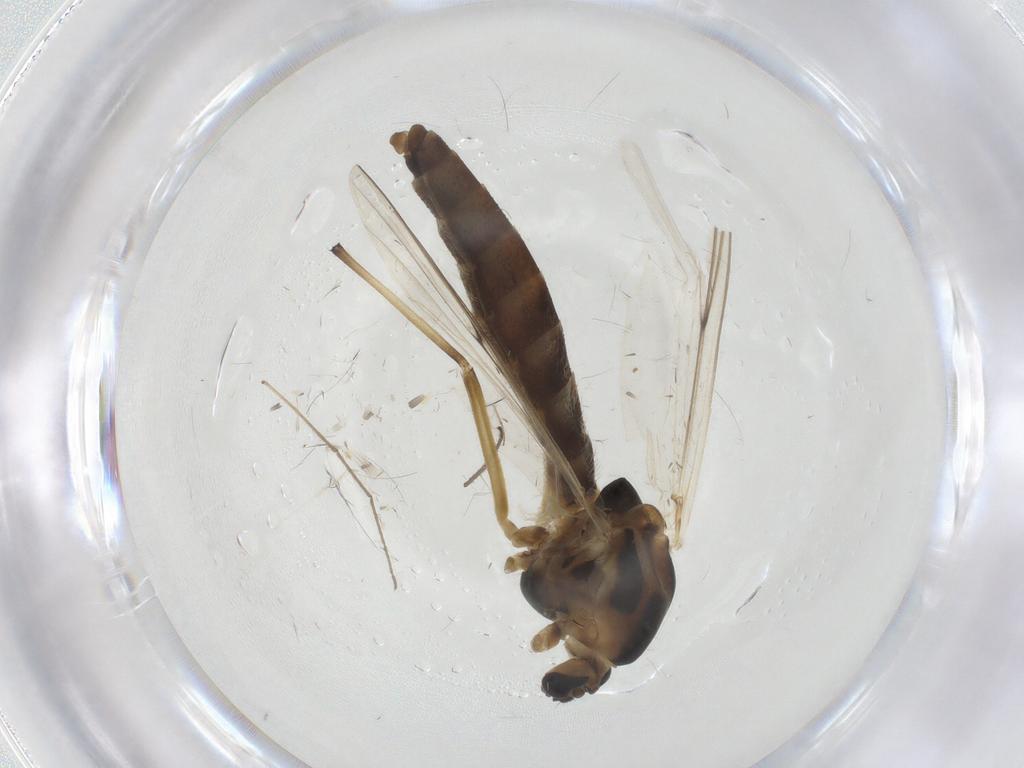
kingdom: Animalia
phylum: Arthropoda
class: Insecta
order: Diptera
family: Chironomidae
